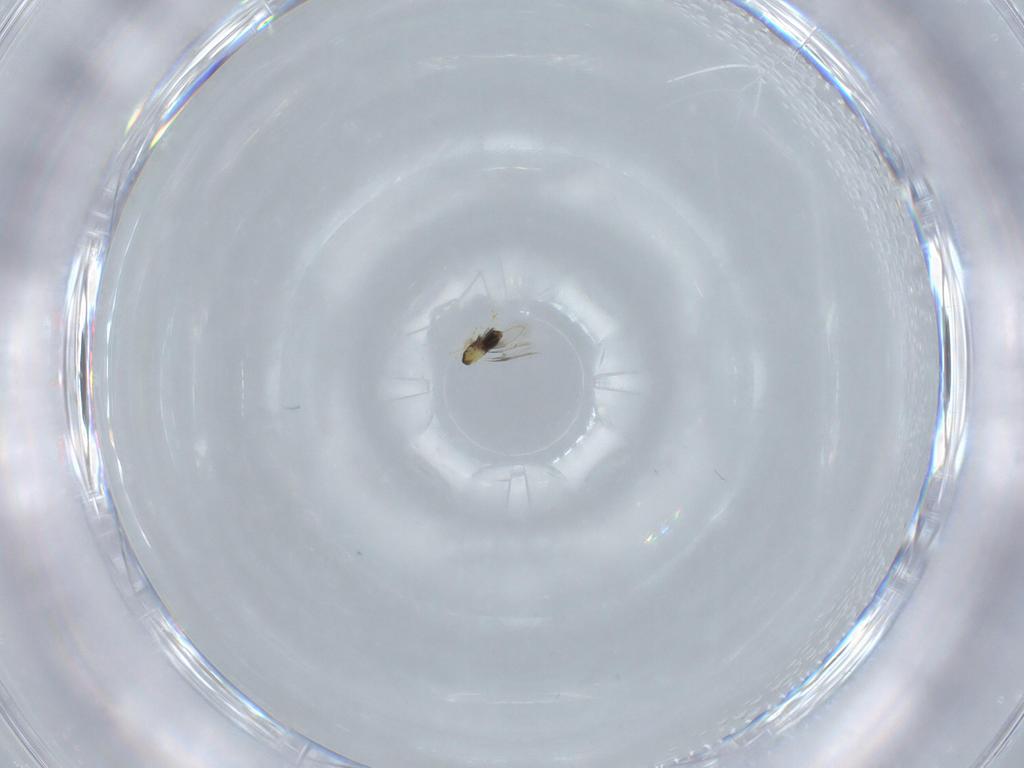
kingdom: Animalia
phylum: Arthropoda
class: Insecta
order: Hymenoptera
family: Aphelinidae
